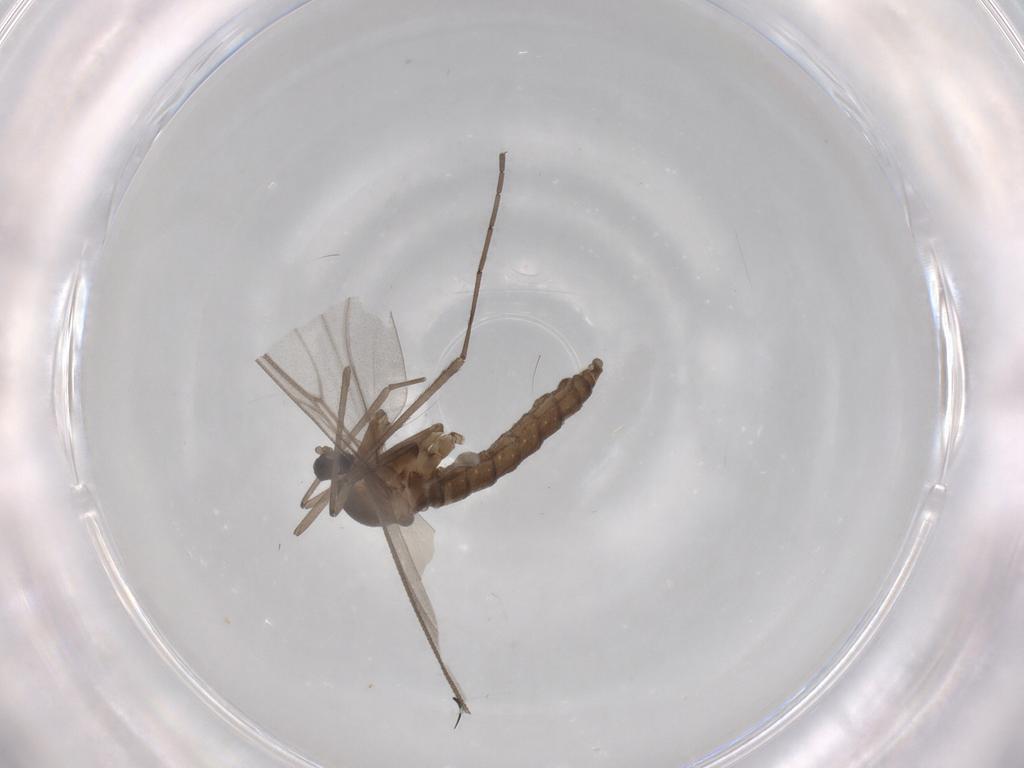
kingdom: Animalia
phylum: Arthropoda
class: Insecta
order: Diptera
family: Cecidomyiidae
